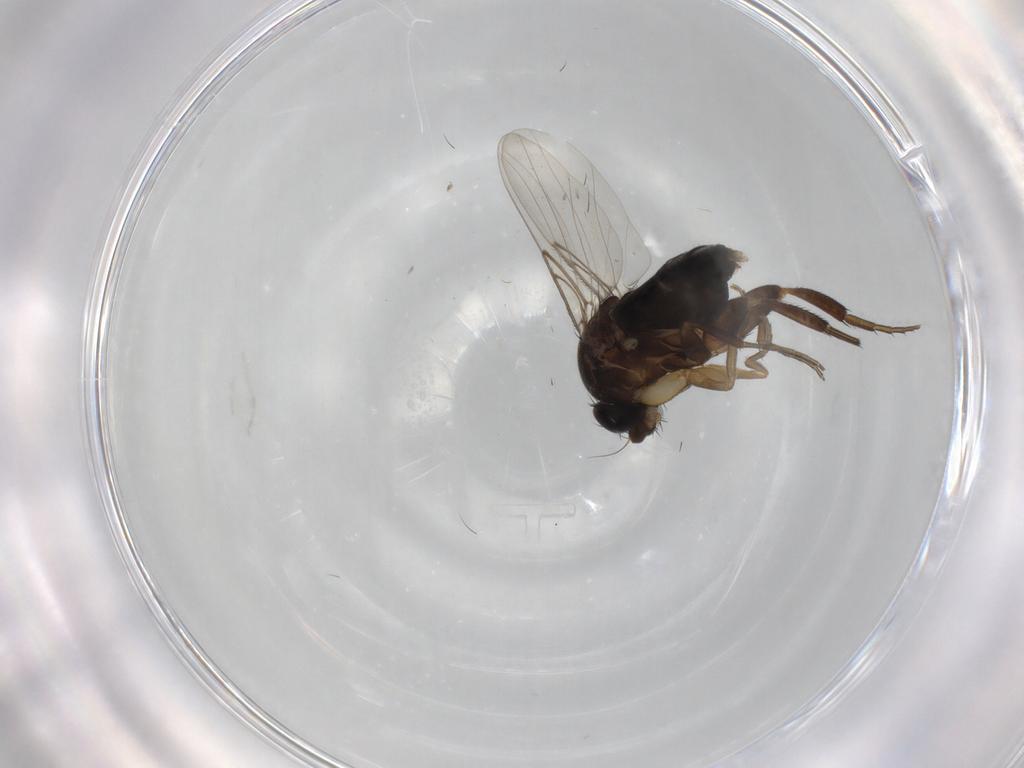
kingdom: Animalia
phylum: Arthropoda
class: Insecta
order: Diptera
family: Phoridae
